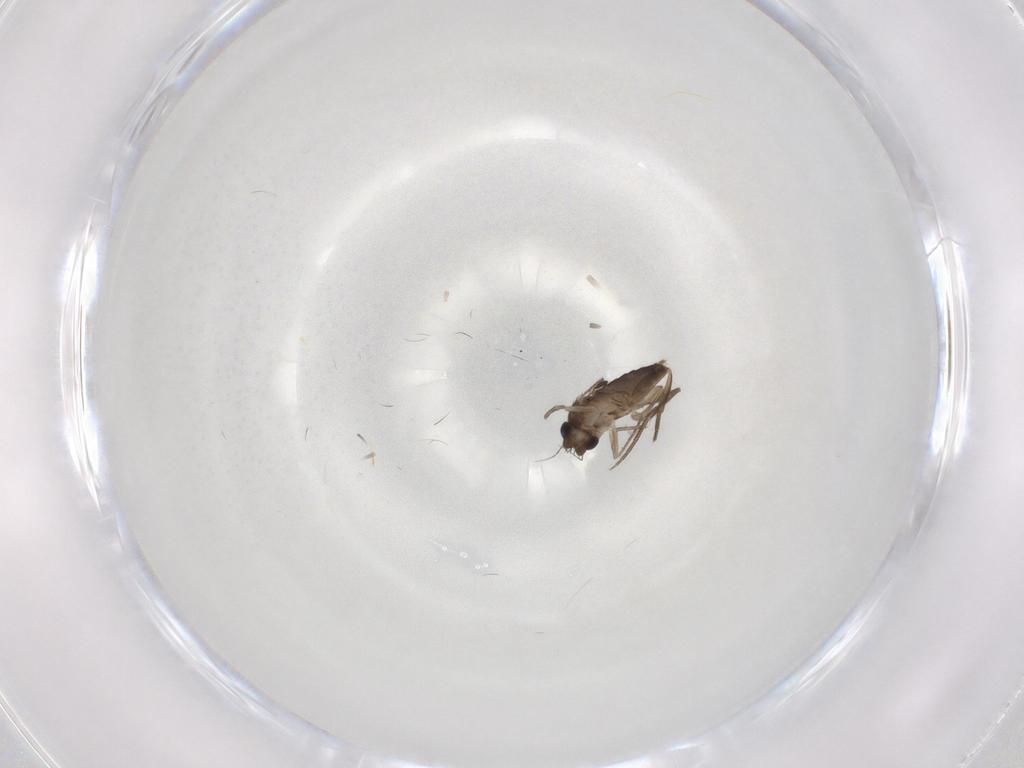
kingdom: Animalia
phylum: Arthropoda
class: Insecta
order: Diptera
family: Phoridae
